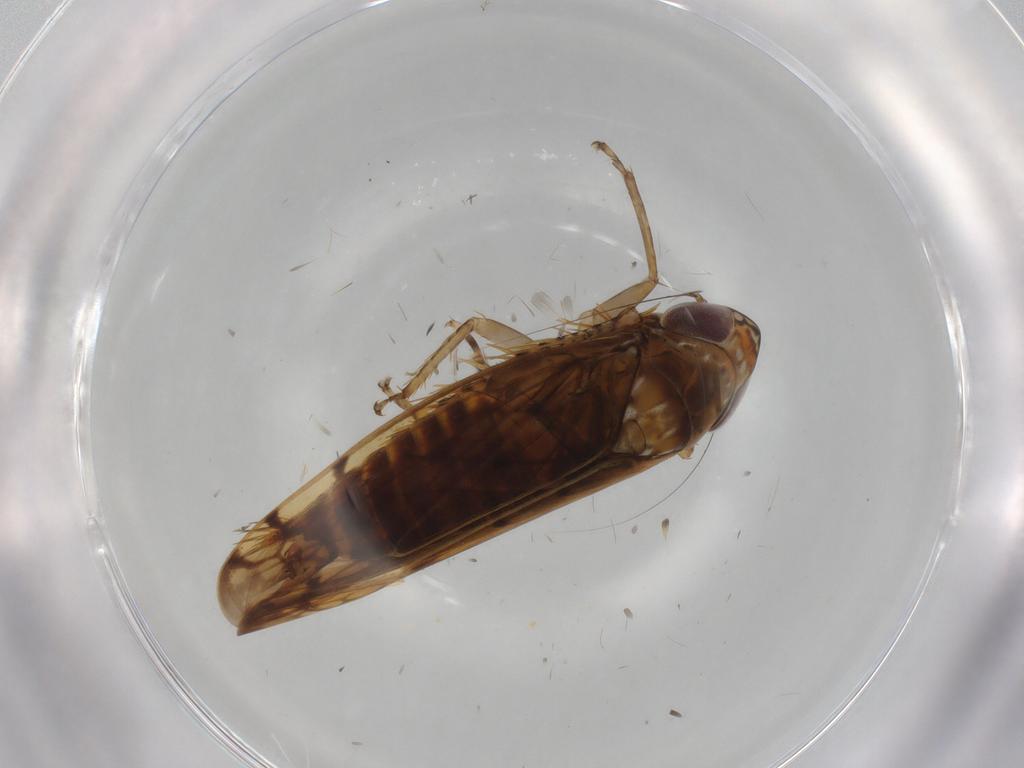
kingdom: Animalia
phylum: Arthropoda
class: Insecta
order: Hemiptera
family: Cicadellidae
